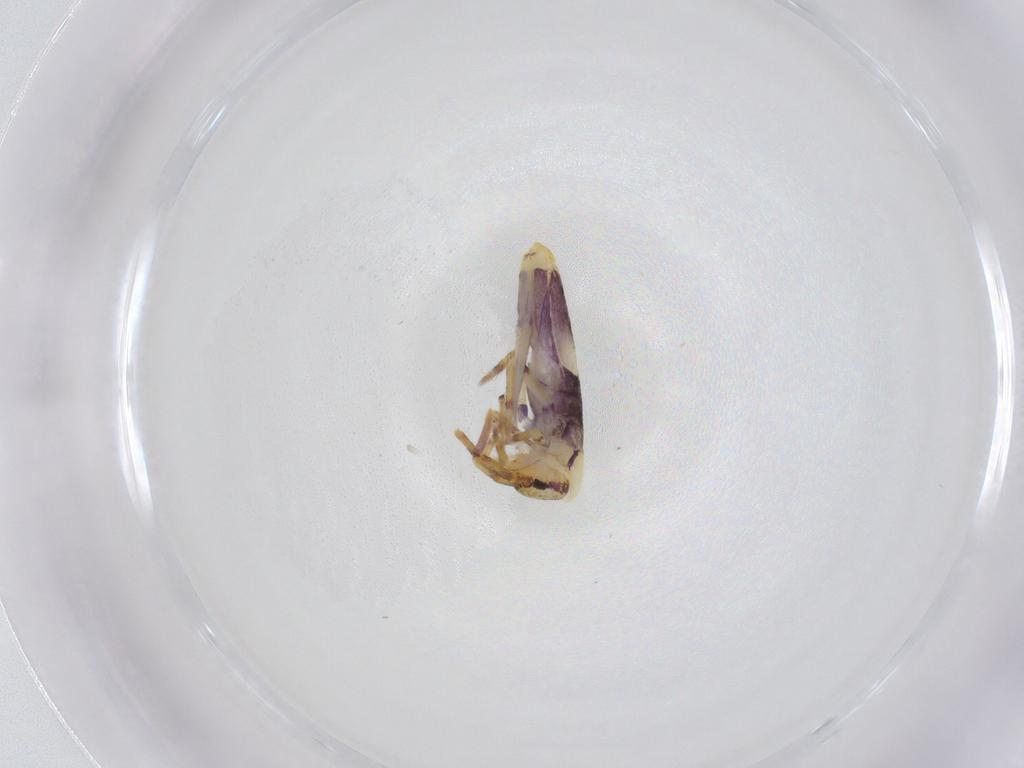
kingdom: Animalia
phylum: Arthropoda
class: Collembola
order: Entomobryomorpha
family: Entomobryidae
